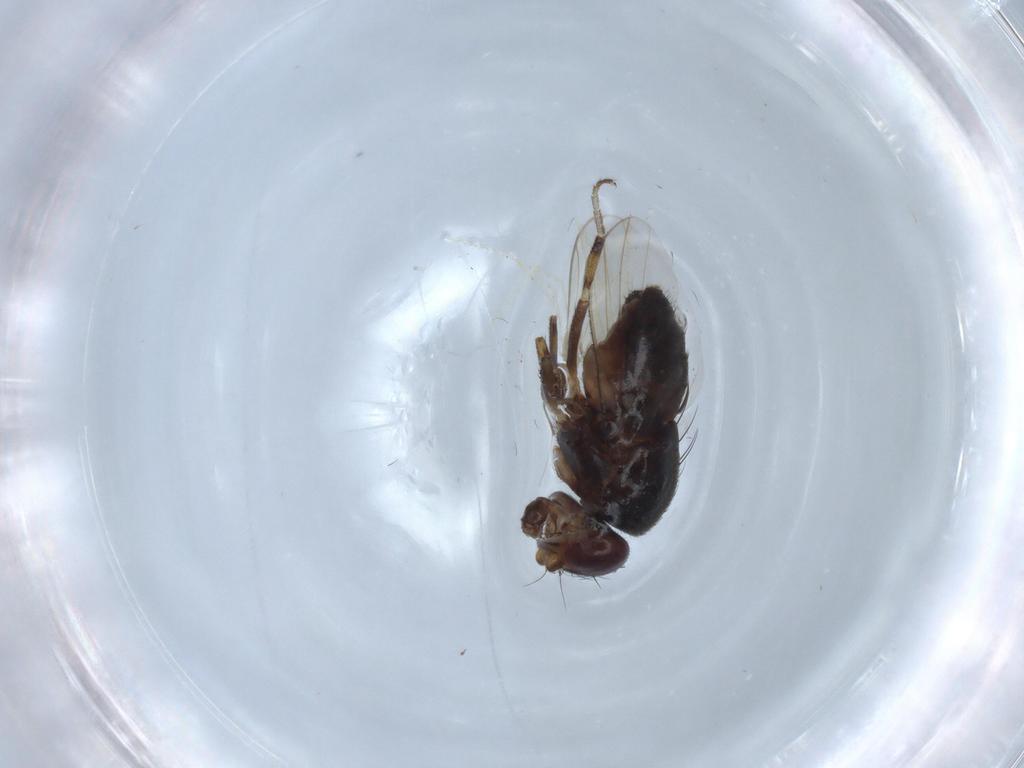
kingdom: Animalia
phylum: Arthropoda
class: Insecta
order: Diptera
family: Heleomyzidae
